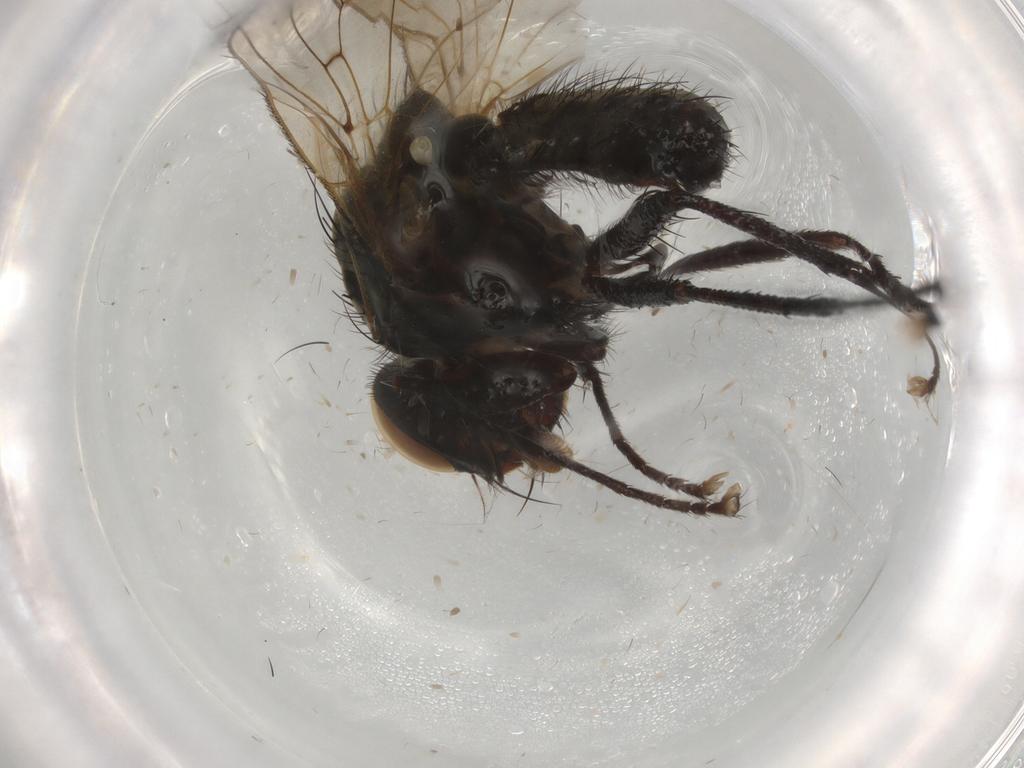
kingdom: Animalia
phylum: Arthropoda
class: Insecta
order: Diptera
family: Anthomyiidae
